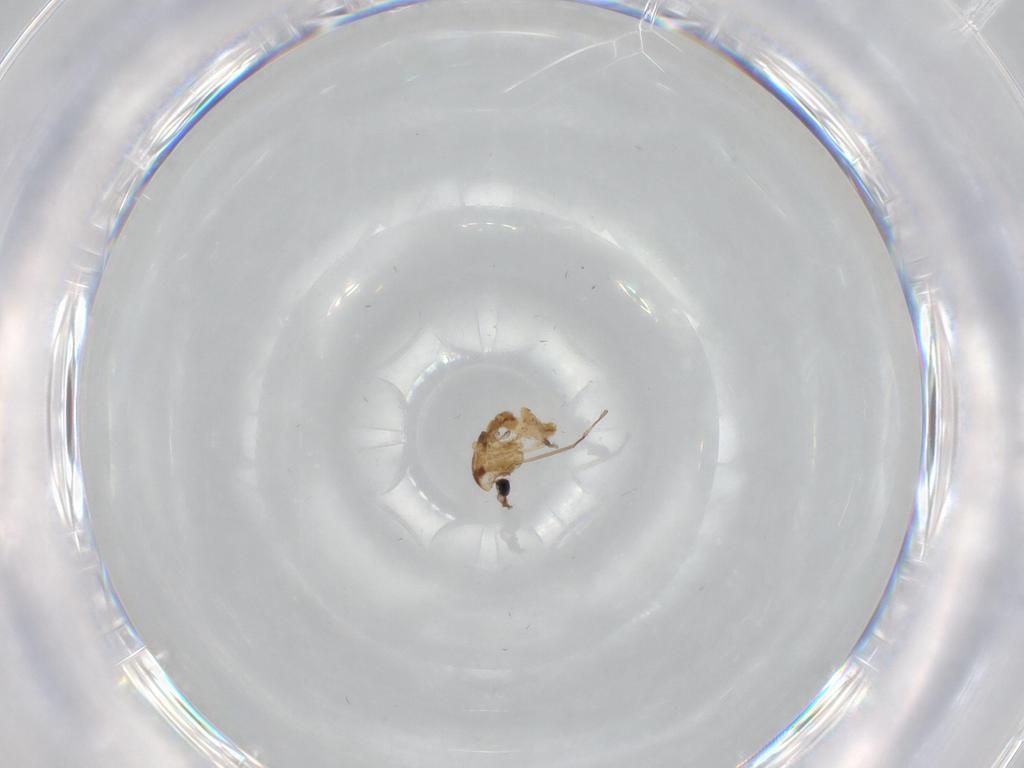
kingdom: Animalia
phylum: Arthropoda
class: Insecta
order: Diptera
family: Chironomidae
